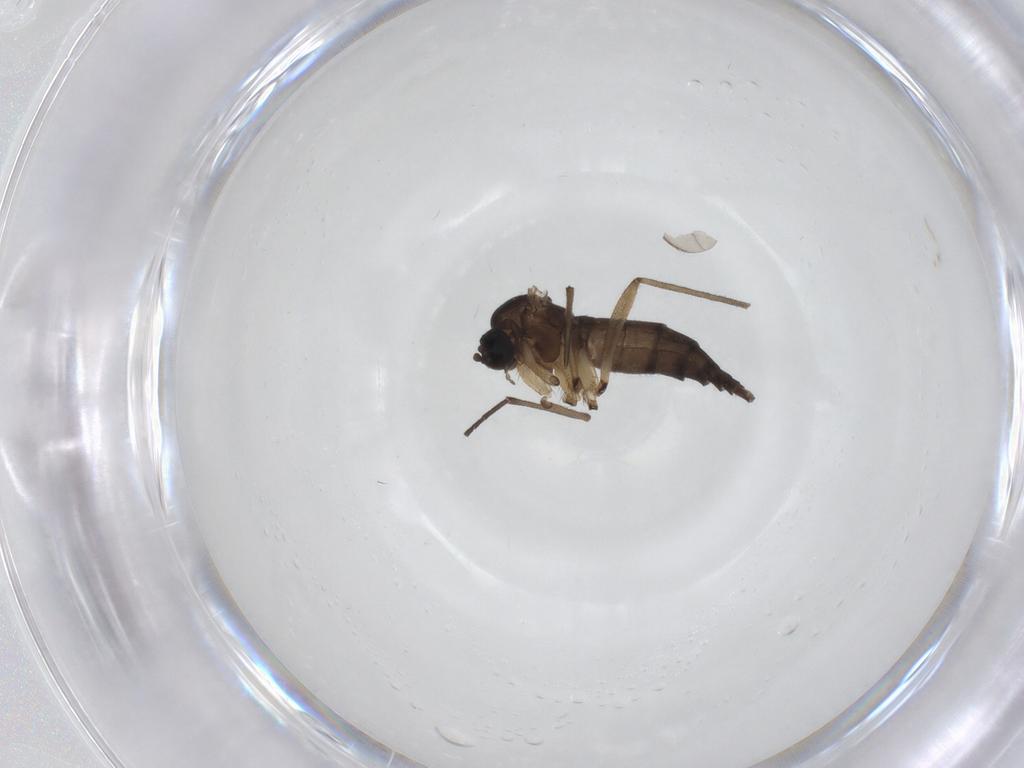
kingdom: Animalia
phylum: Arthropoda
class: Insecta
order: Diptera
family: Sciaridae
